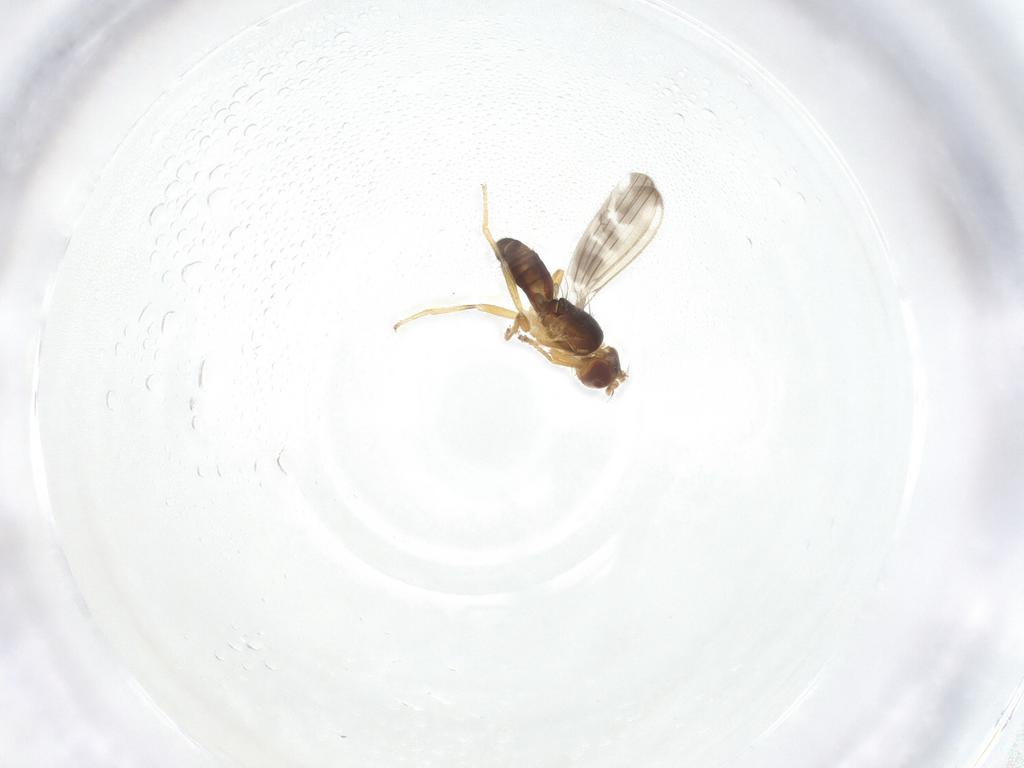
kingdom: Animalia
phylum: Arthropoda
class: Insecta
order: Diptera
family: Periscelididae
